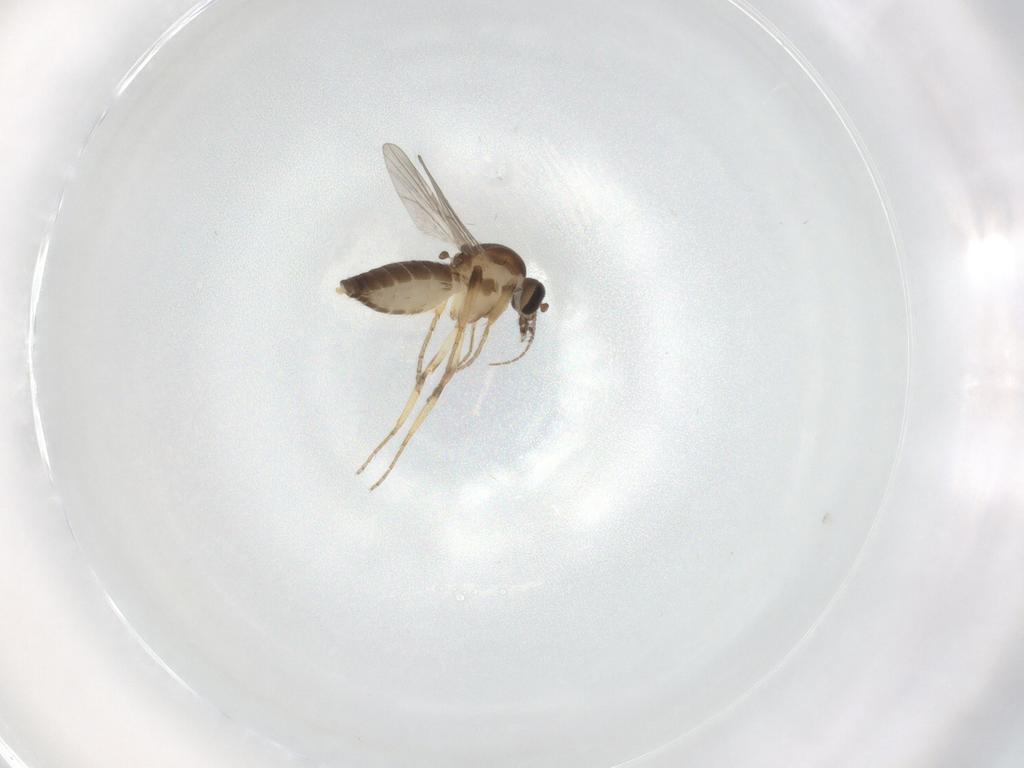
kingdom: Animalia
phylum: Arthropoda
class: Insecta
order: Diptera
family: Ceratopogonidae
